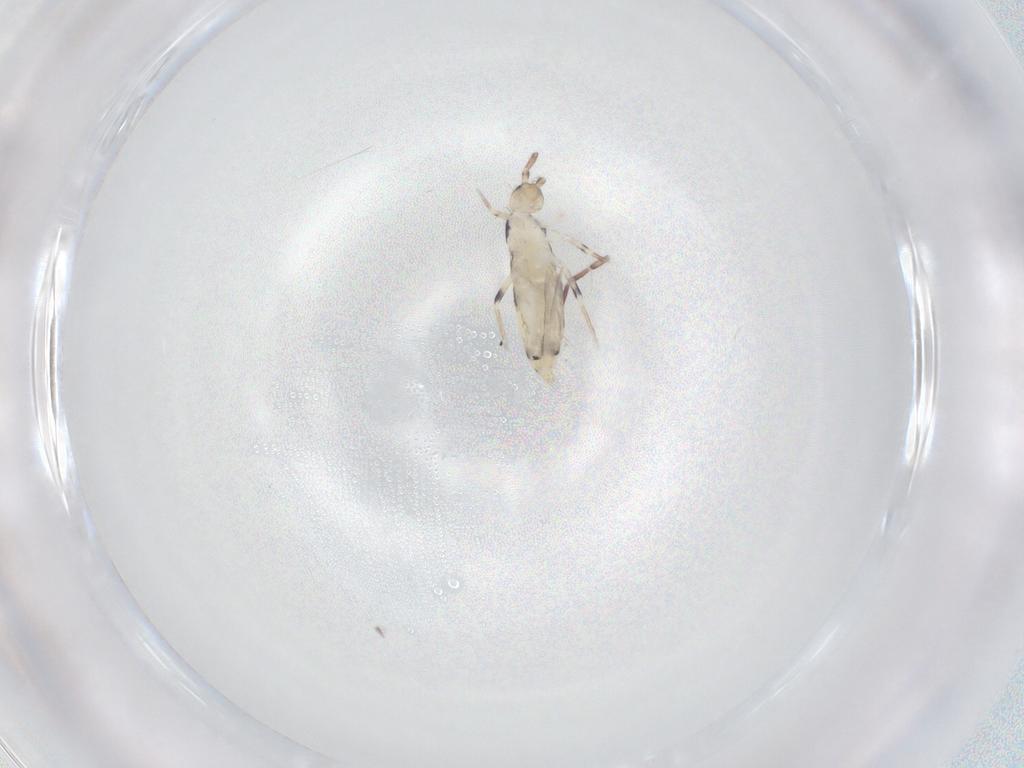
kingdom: Animalia
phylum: Arthropoda
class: Collembola
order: Entomobryomorpha
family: Entomobryidae
